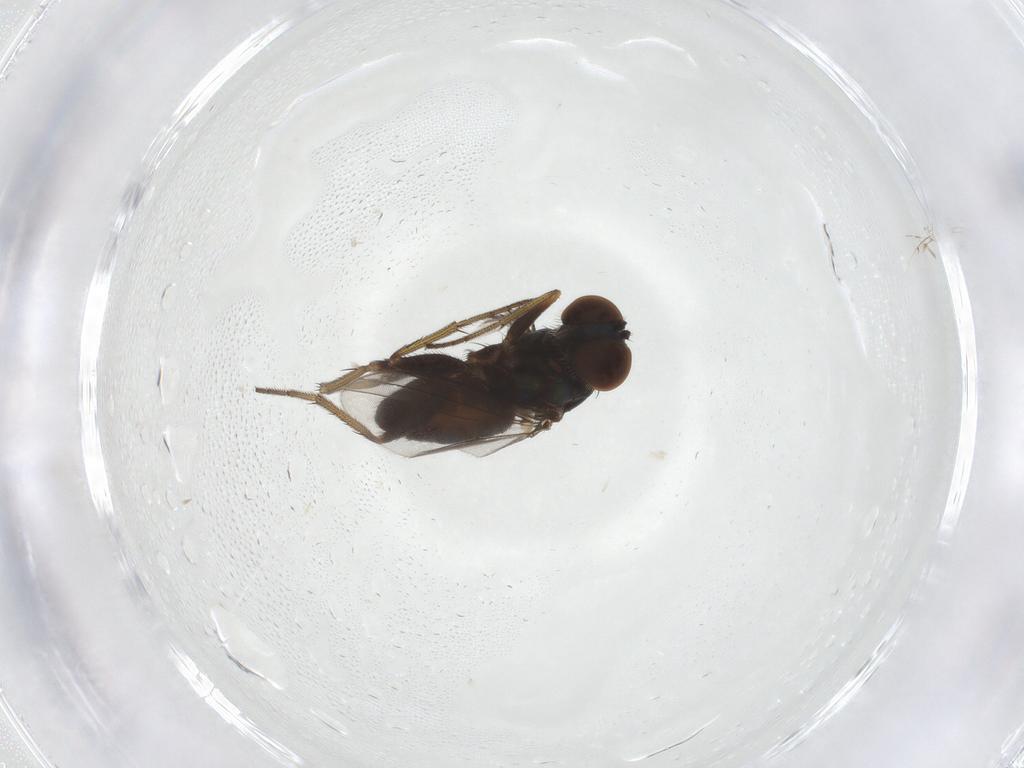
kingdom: Animalia
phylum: Arthropoda
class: Insecta
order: Diptera
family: Dolichopodidae
